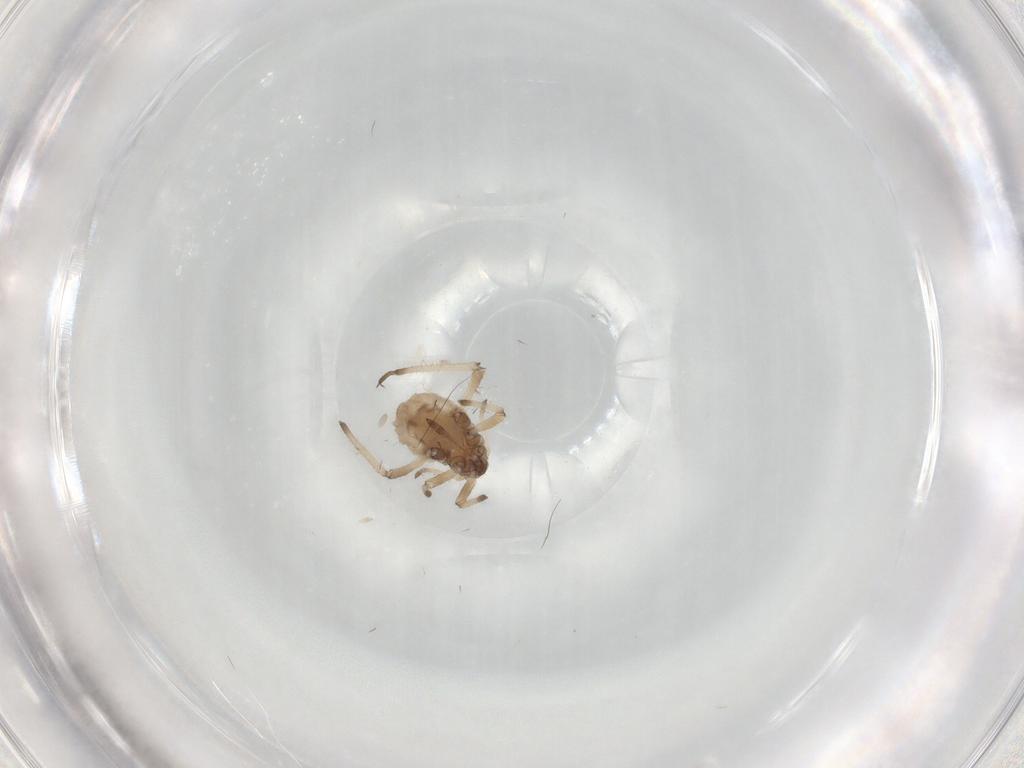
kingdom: Animalia
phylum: Arthropoda
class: Insecta
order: Hemiptera
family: Aphididae
